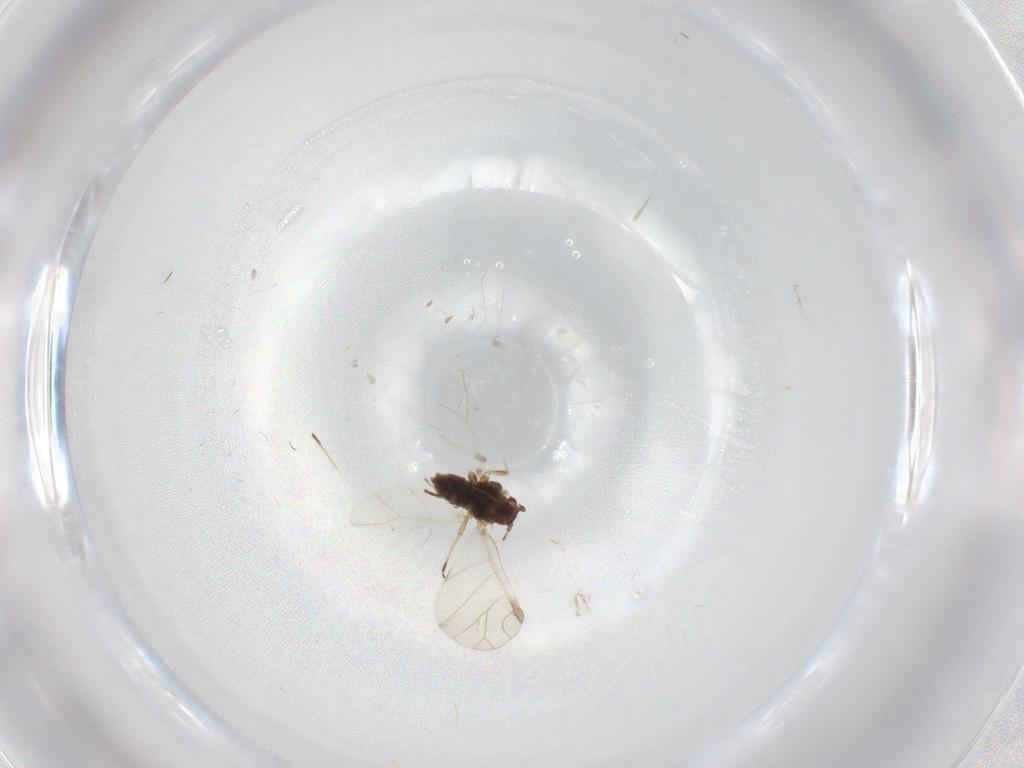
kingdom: Animalia
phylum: Arthropoda
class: Insecta
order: Hemiptera
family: Aphididae
